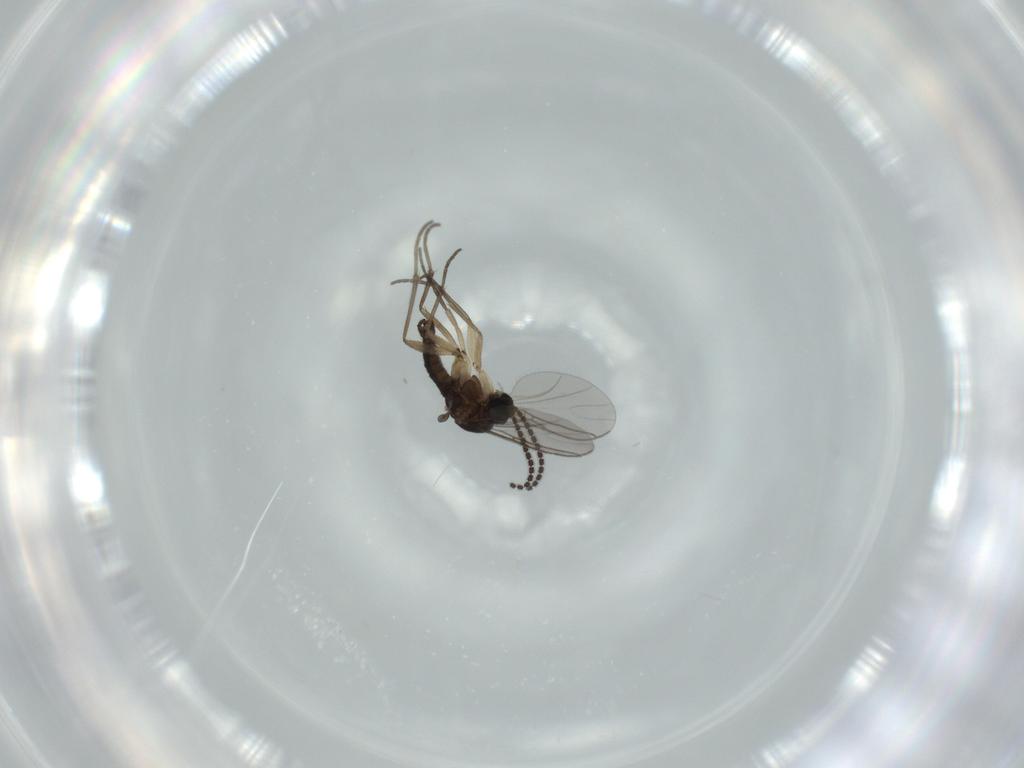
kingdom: Animalia
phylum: Arthropoda
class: Insecta
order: Diptera
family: Sciaridae
